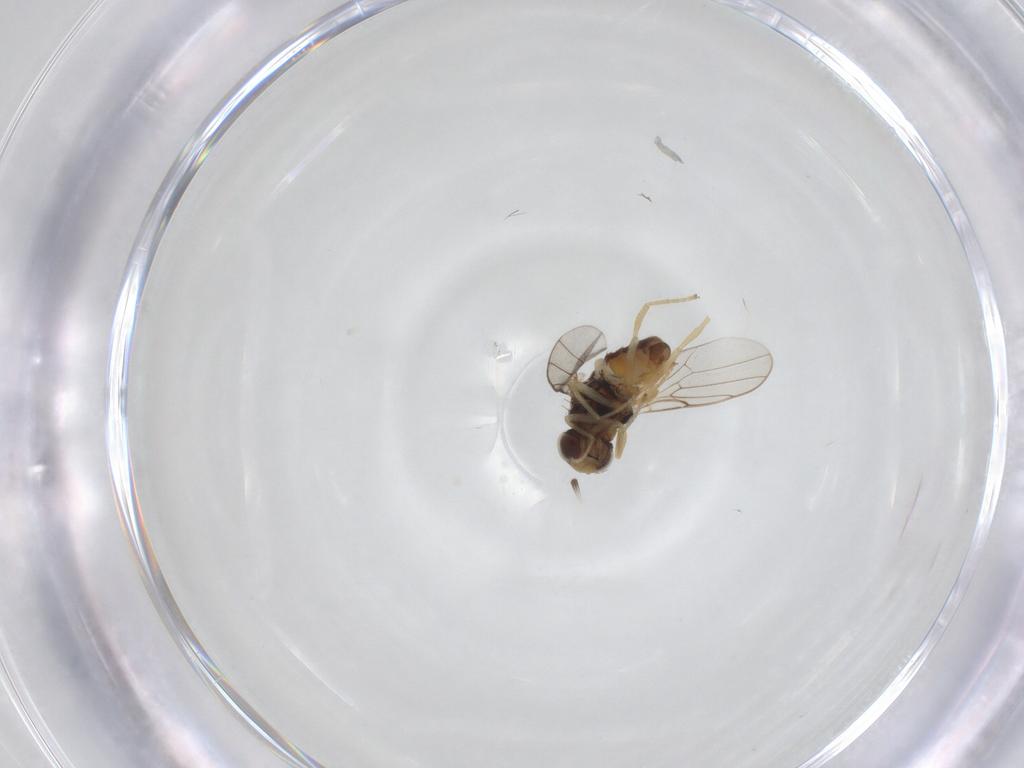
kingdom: Animalia
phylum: Arthropoda
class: Insecta
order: Diptera
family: Chloropidae
